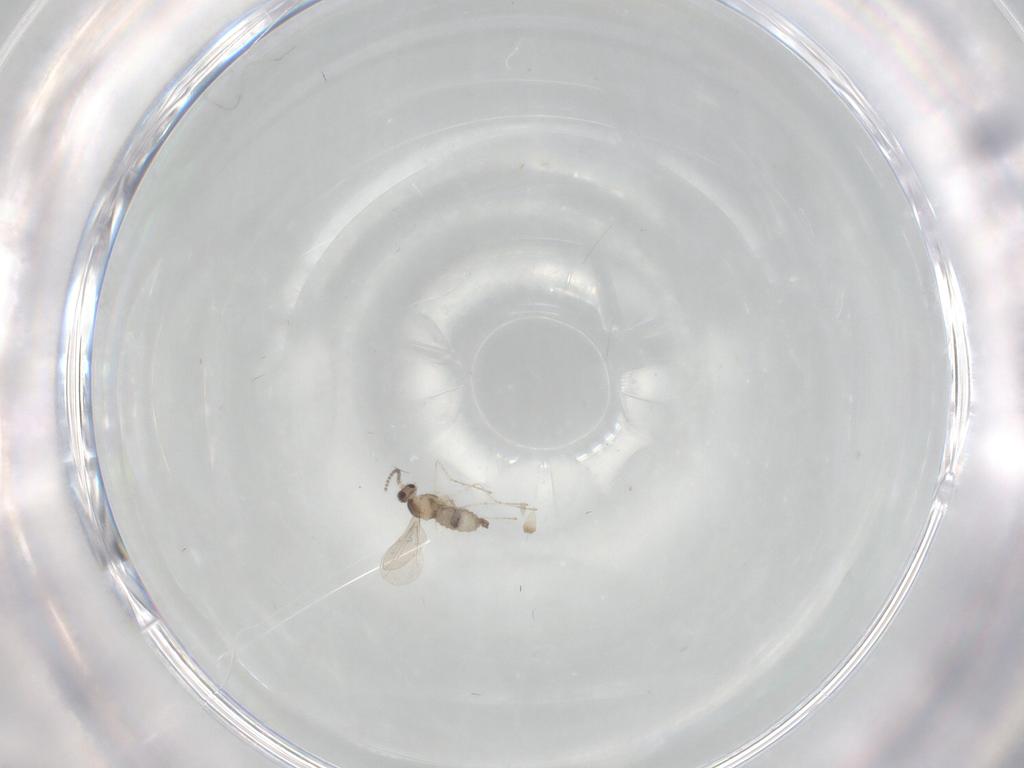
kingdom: Animalia
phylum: Arthropoda
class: Insecta
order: Diptera
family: Cecidomyiidae
